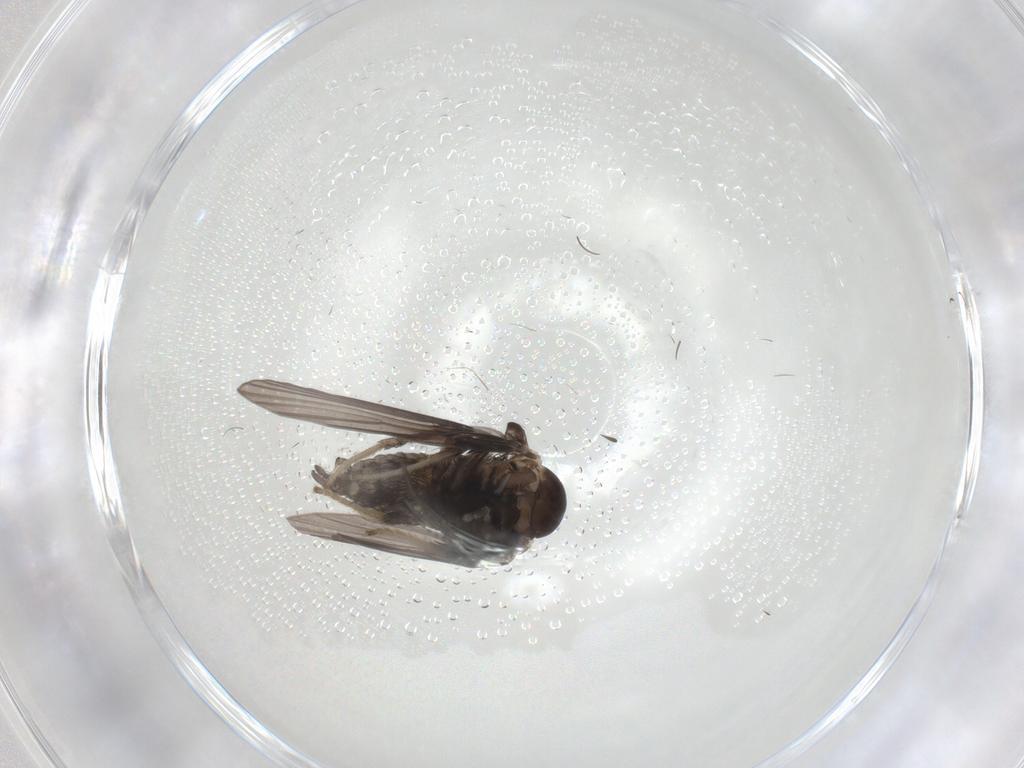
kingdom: Animalia
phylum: Arthropoda
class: Insecta
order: Diptera
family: Psychodidae
